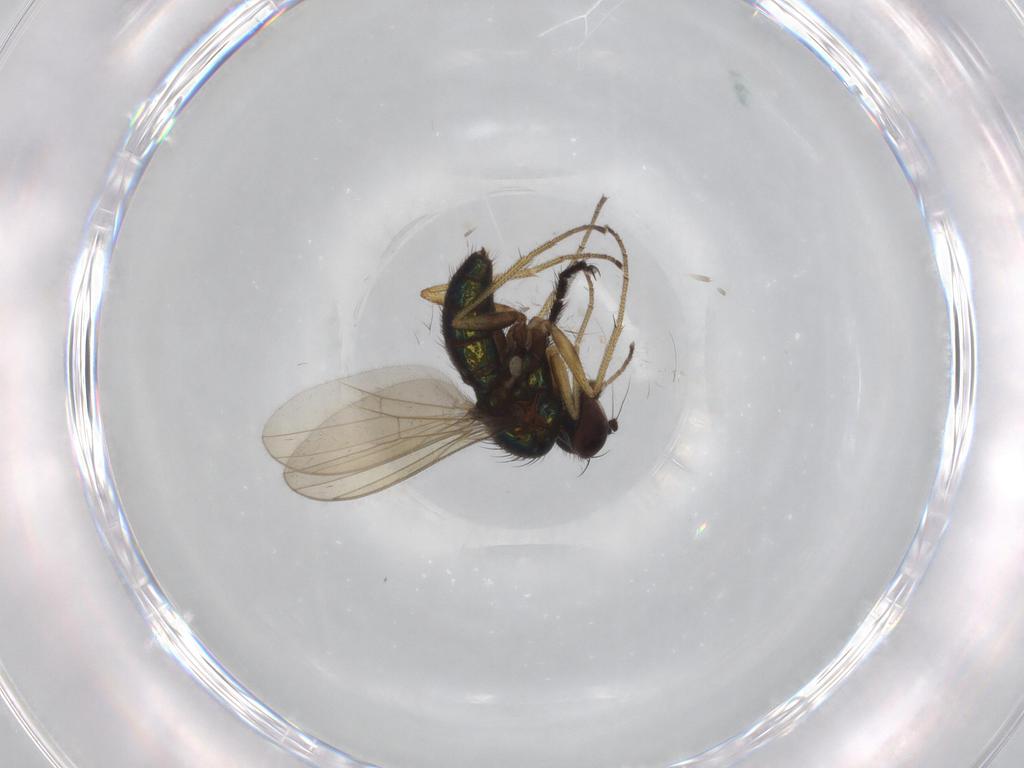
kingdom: Animalia
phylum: Arthropoda
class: Insecta
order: Diptera
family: Dolichopodidae
